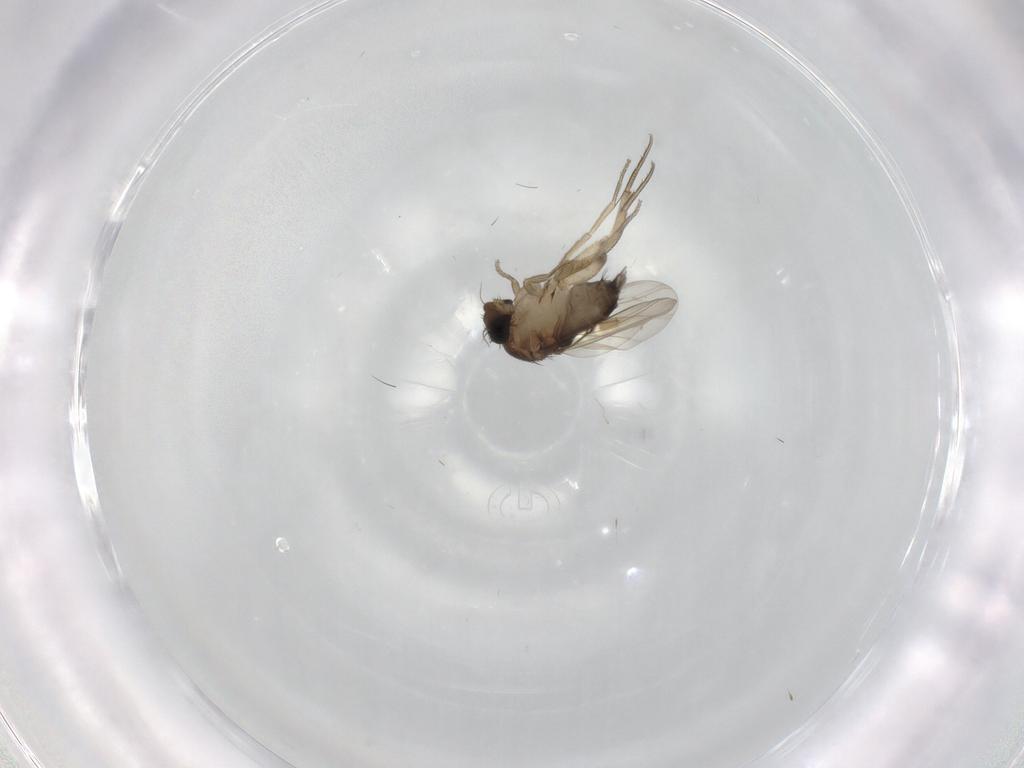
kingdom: Animalia
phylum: Arthropoda
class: Insecta
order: Diptera
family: Phoridae
